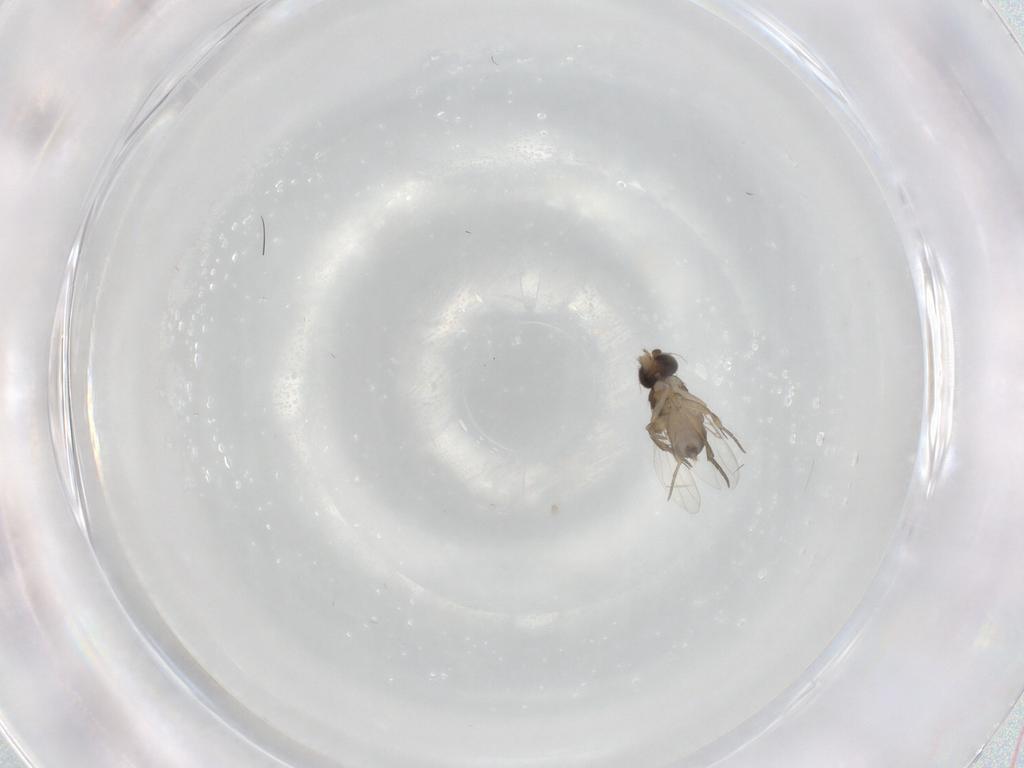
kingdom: Animalia
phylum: Arthropoda
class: Insecta
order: Diptera
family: Phoridae
